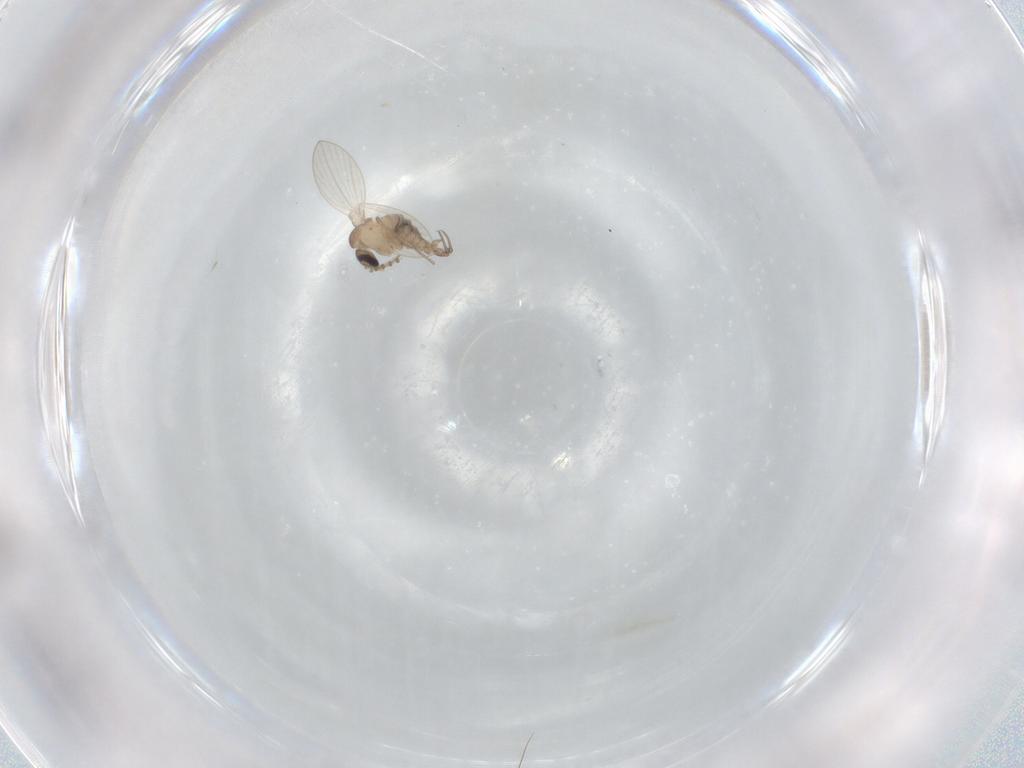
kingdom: Animalia
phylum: Arthropoda
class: Insecta
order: Diptera
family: Psychodidae
